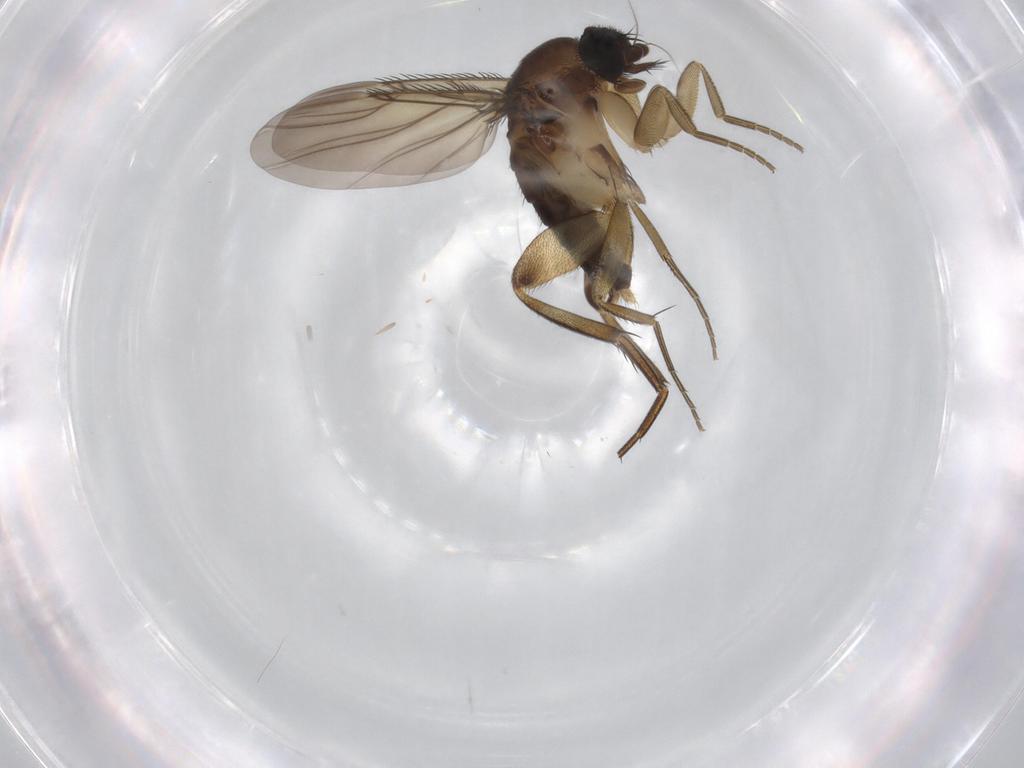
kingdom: Animalia
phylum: Arthropoda
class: Insecta
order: Diptera
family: Phoridae
